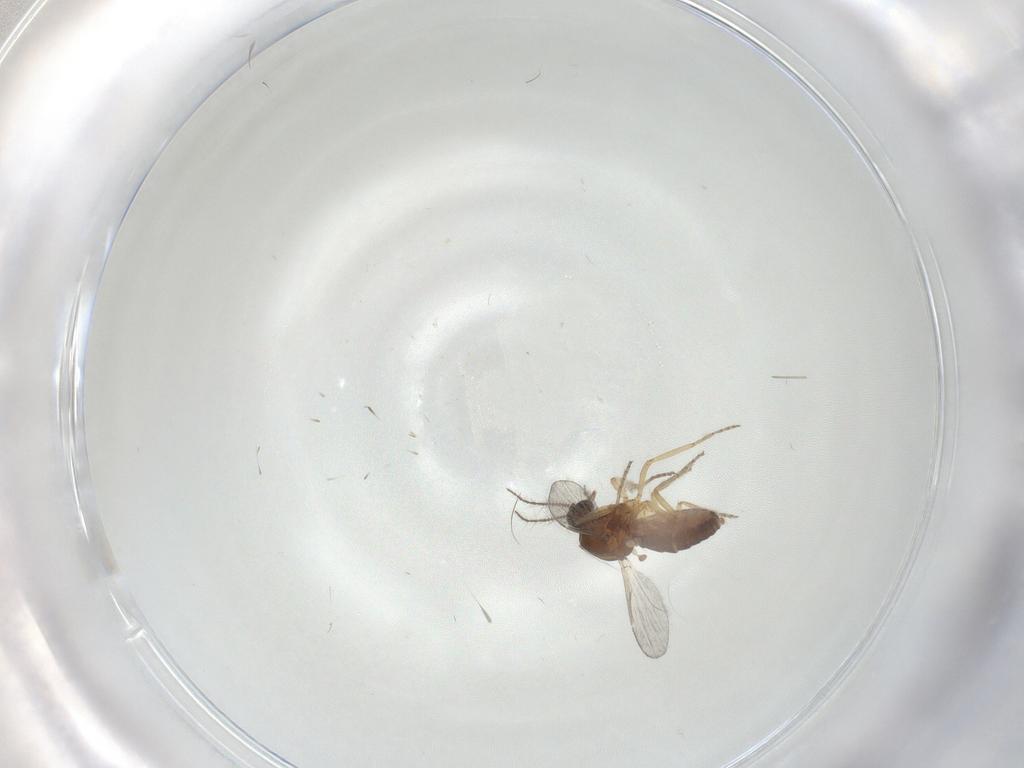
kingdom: Animalia
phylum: Arthropoda
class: Insecta
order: Diptera
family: Ceratopogonidae
